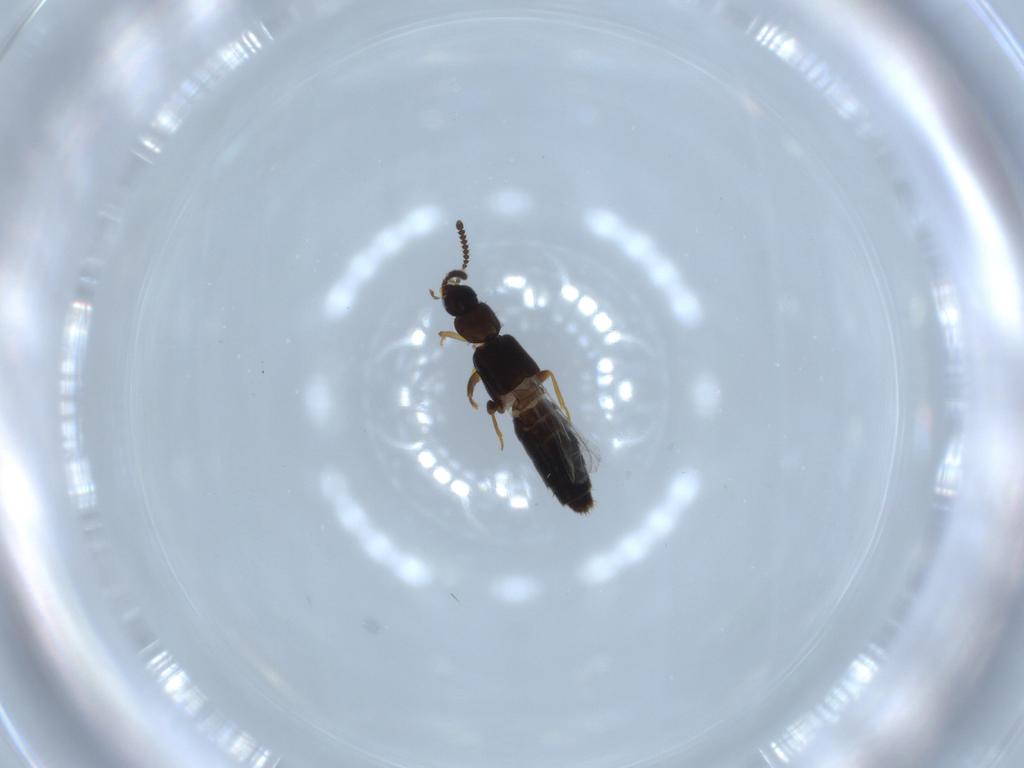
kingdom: Animalia
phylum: Arthropoda
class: Insecta
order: Coleoptera
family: Staphylinidae
